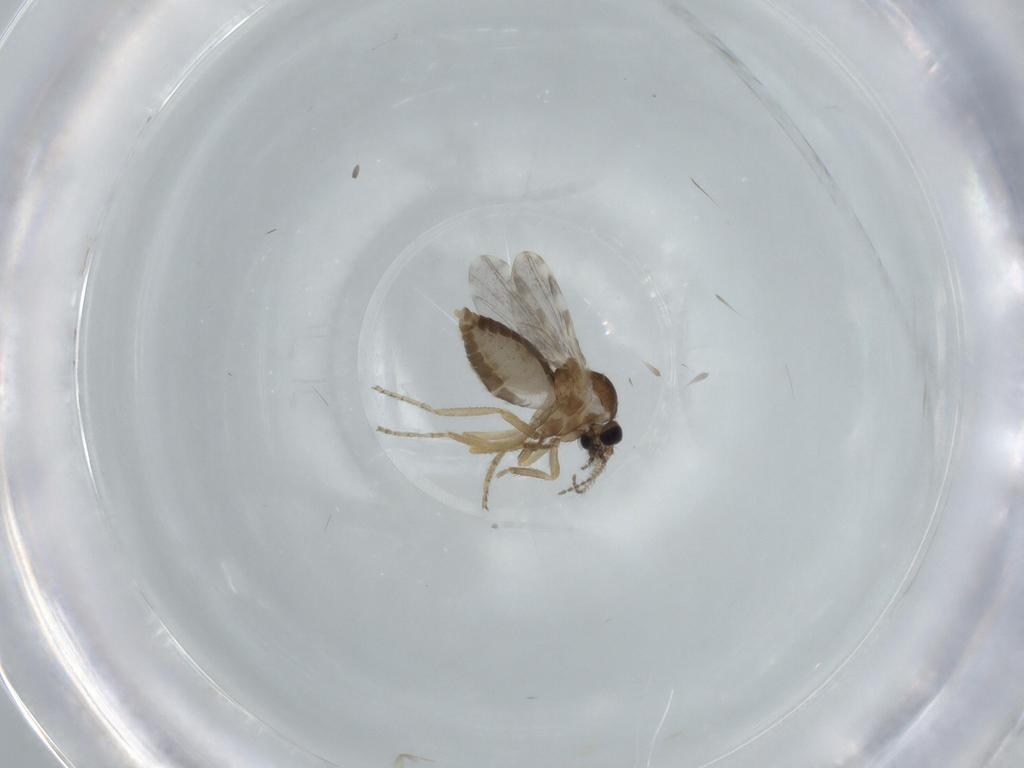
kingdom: Animalia
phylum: Arthropoda
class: Insecta
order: Diptera
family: Ceratopogonidae
